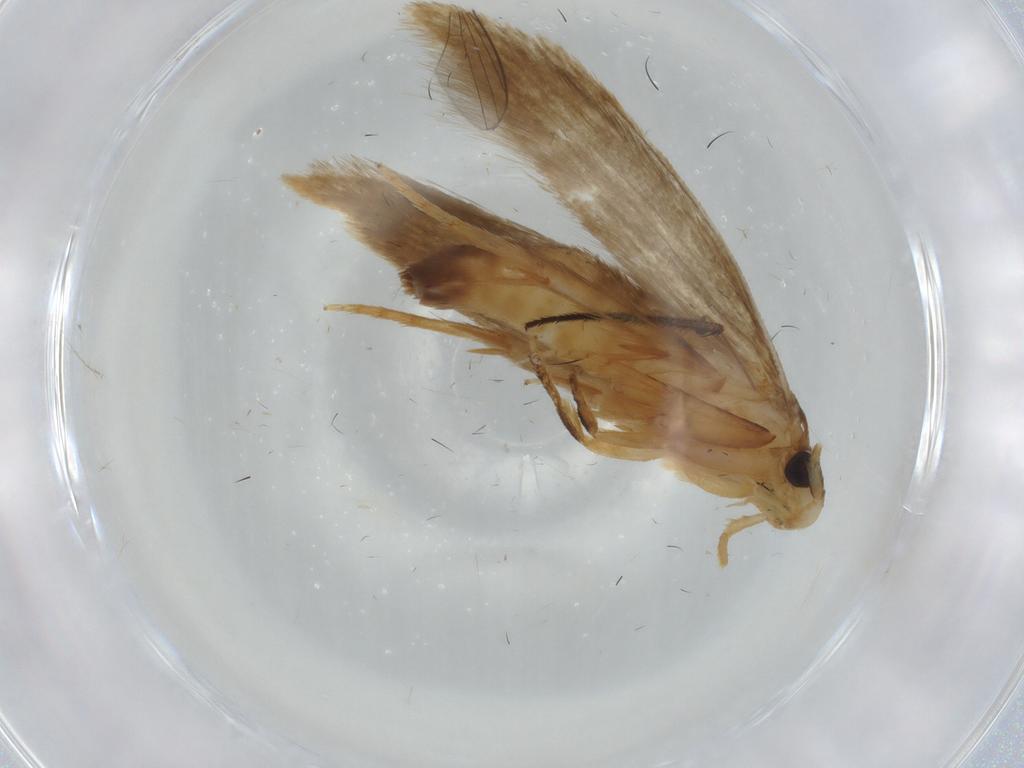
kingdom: Animalia
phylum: Arthropoda
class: Insecta
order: Lepidoptera
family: Tineidae
